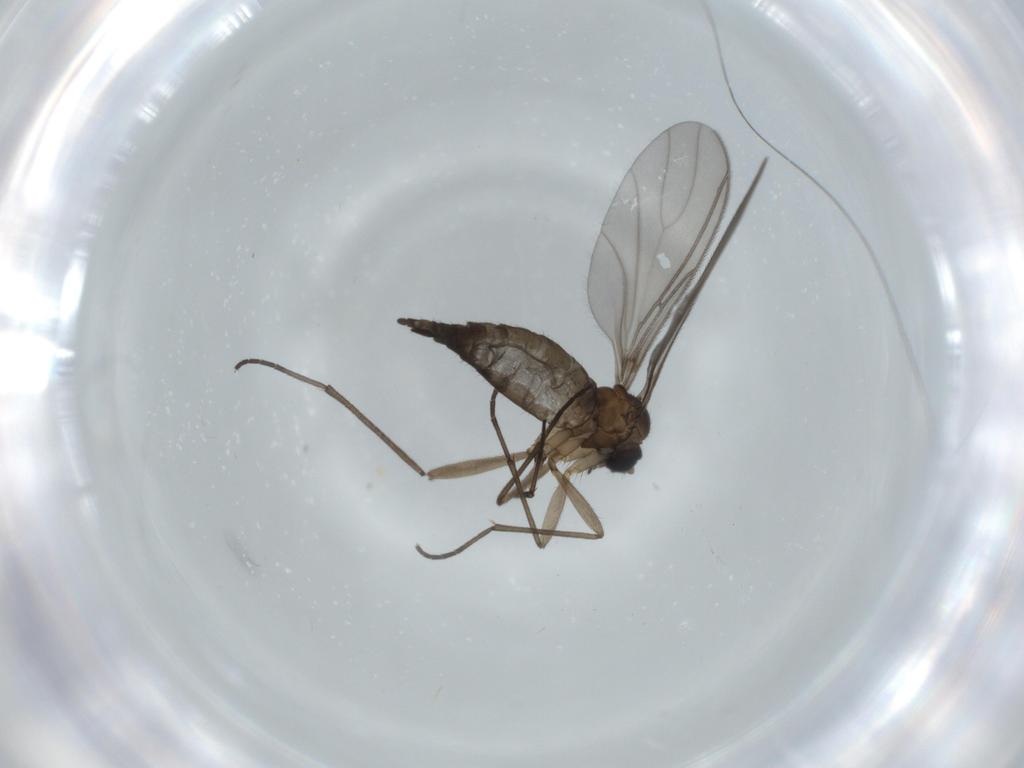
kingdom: Animalia
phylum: Arthropoda
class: Insecta
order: Diptera
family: Sciaridae
